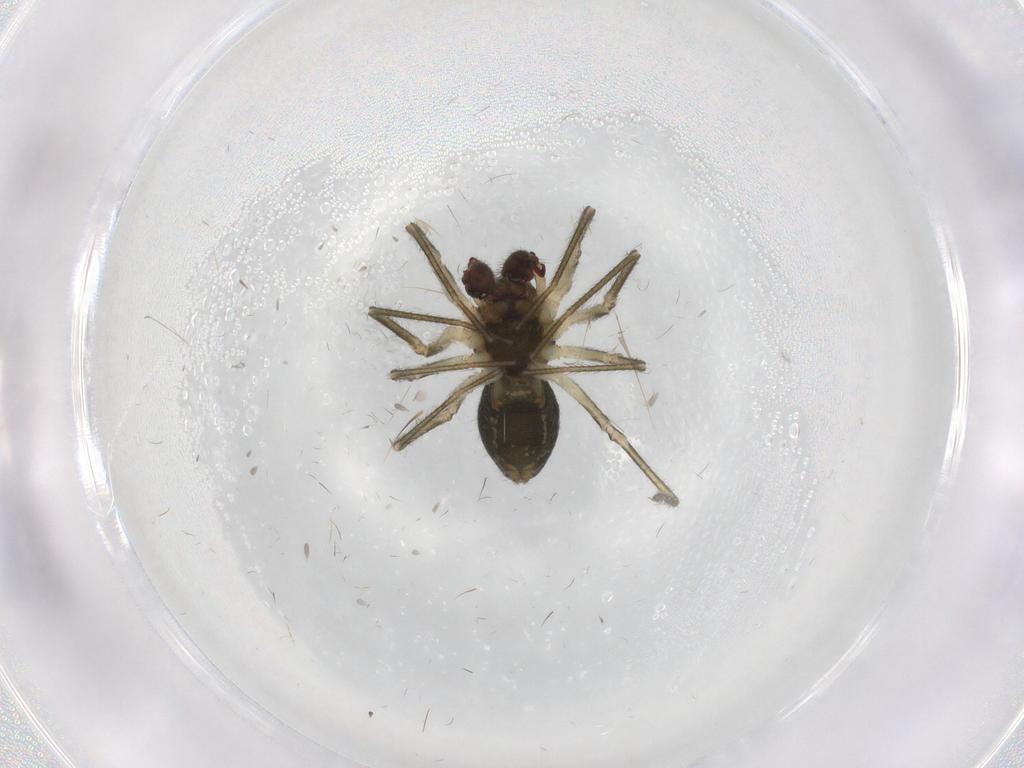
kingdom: Animalia
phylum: Arthropoda
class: Arachnida
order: Araneae
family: Linyphiidae
